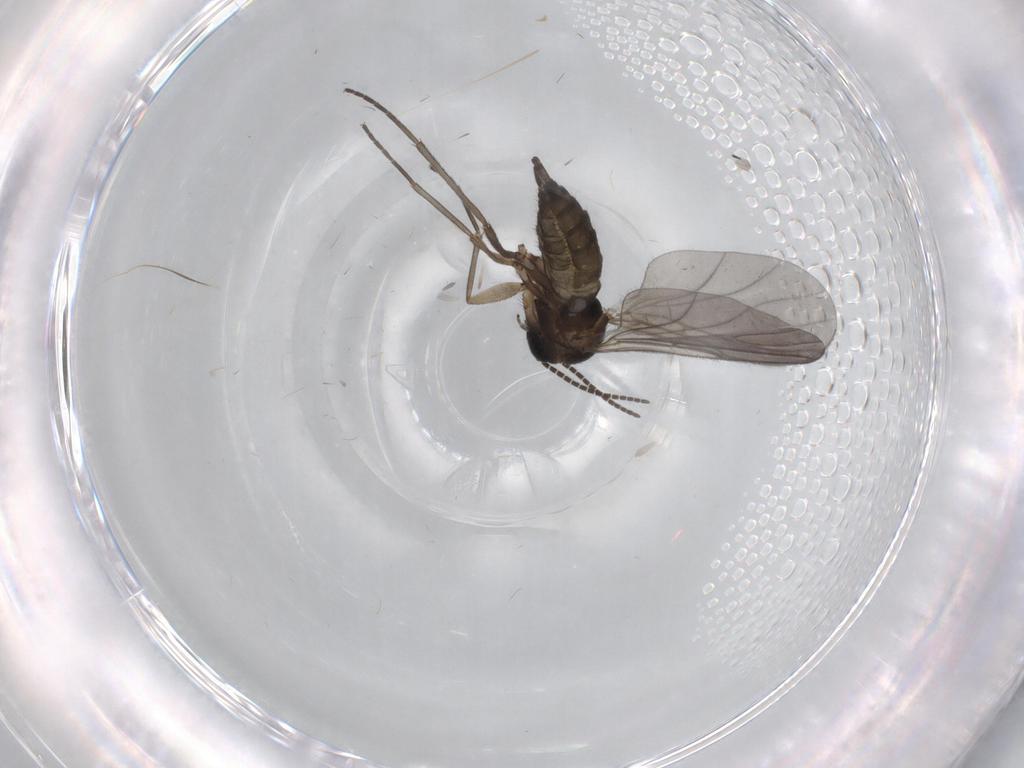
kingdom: Animalia
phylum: Arthropoda
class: Insecta
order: Diptera
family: Sciaridae
